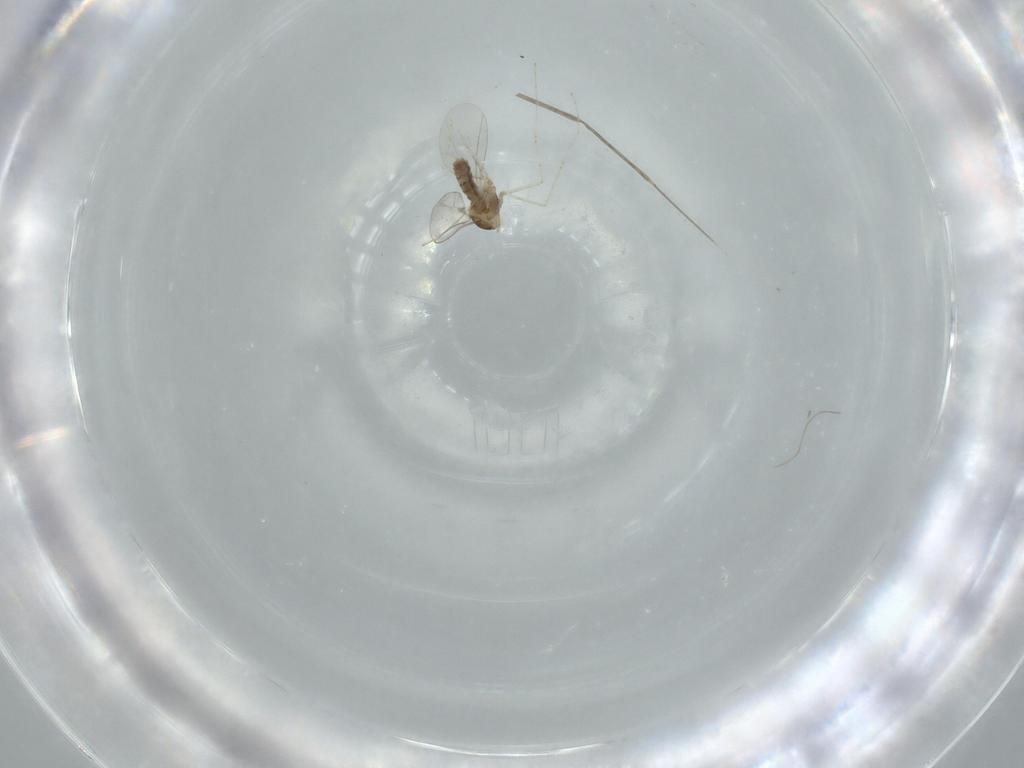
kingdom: Animalia
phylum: Arthropoda
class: Insecta
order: Diptera
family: Cecidomyiidae
